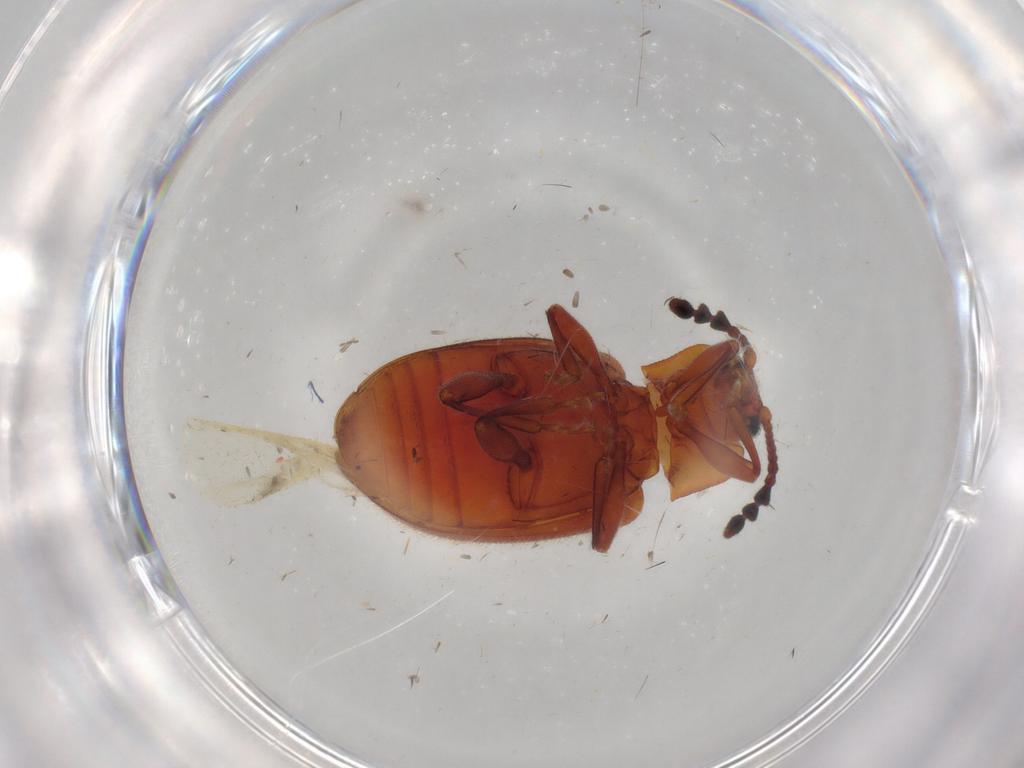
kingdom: Animalia
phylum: Arthropoda
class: Insecta
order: Coleoptera
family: Endomychidae
